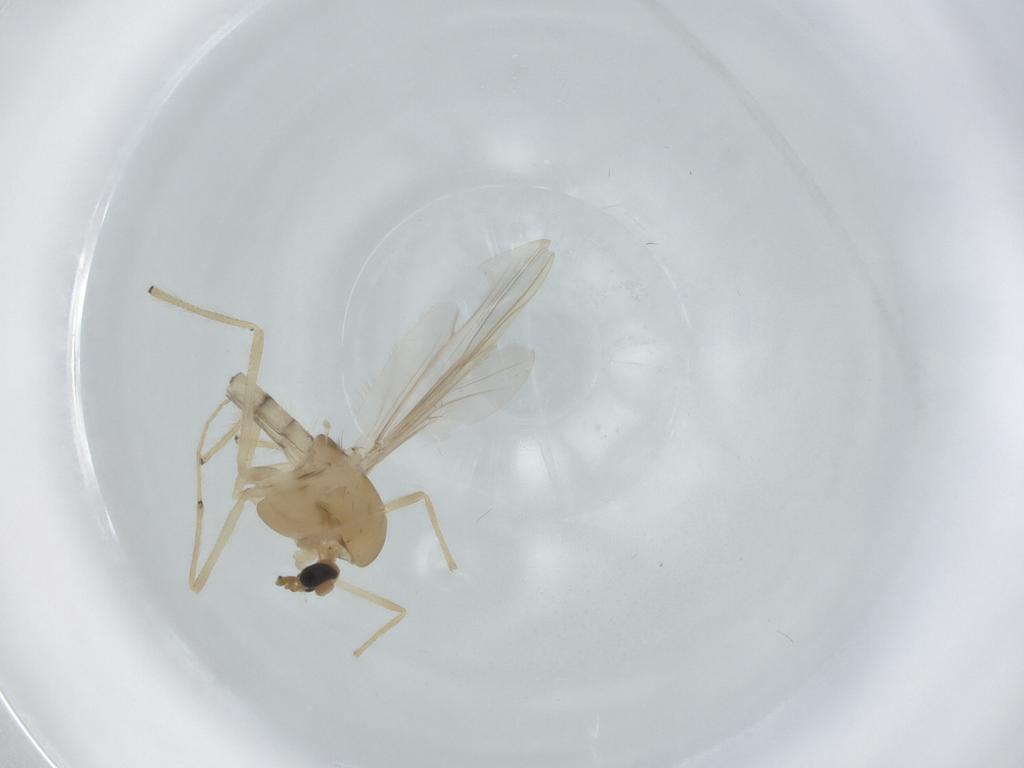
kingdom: Animalia
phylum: Arthropoda
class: Insecta
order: Diptera
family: Chironomidae
